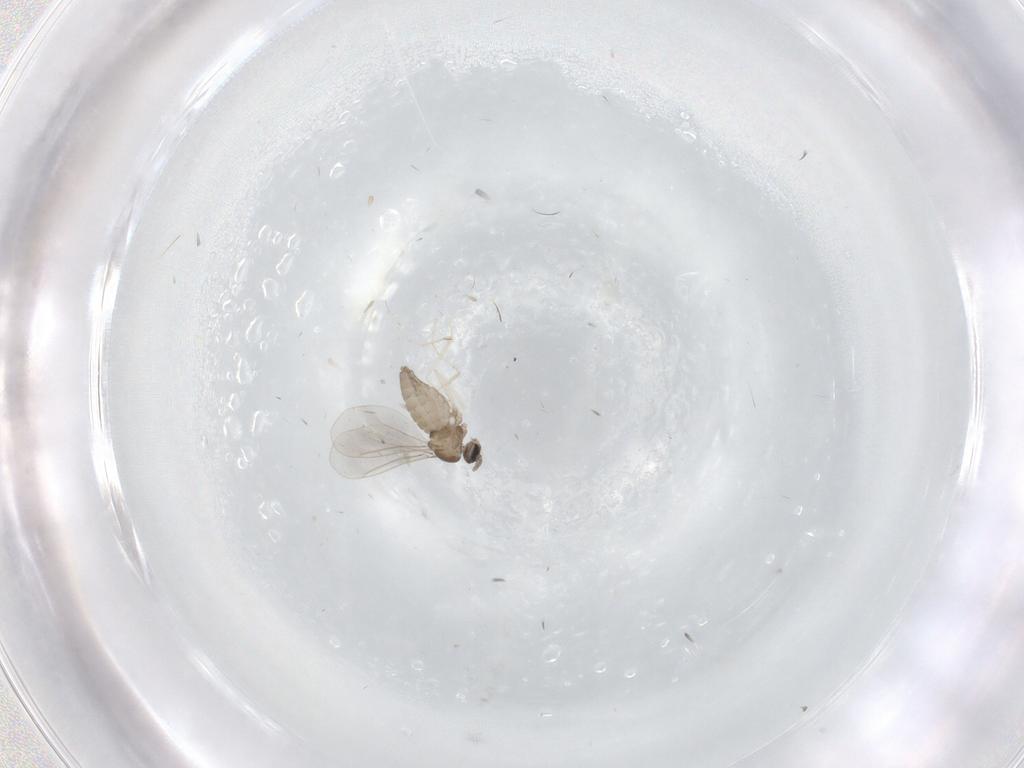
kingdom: Animalia
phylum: Arthropoda
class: Insecta
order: Diptera
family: Cecidomyiidae
